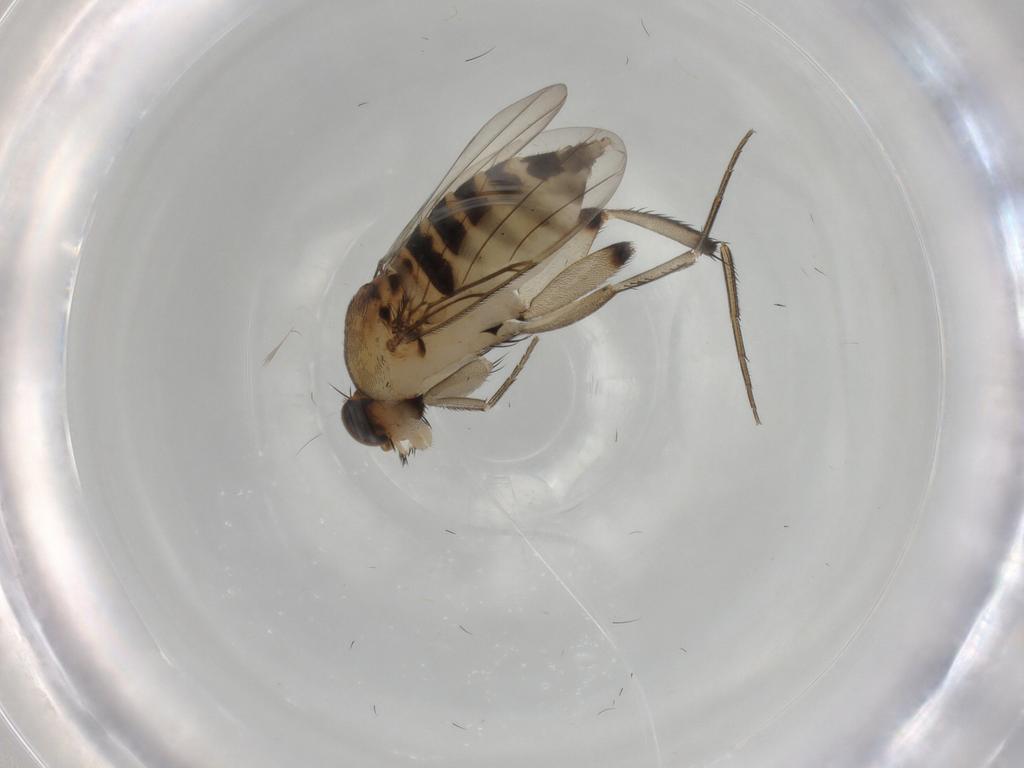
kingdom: Animalia
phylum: Arthropoda
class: Insecta
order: Diptera
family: Phoridae
